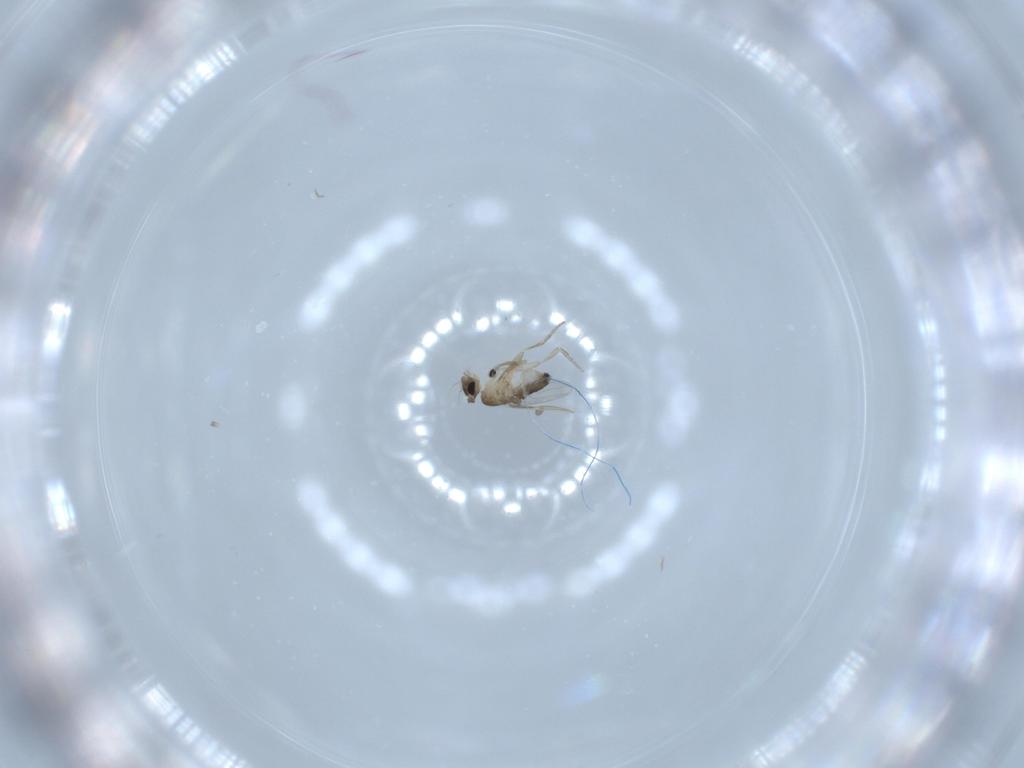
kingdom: Animalia
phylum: Arthropoda
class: Insecta
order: Diptera
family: Phoridae
